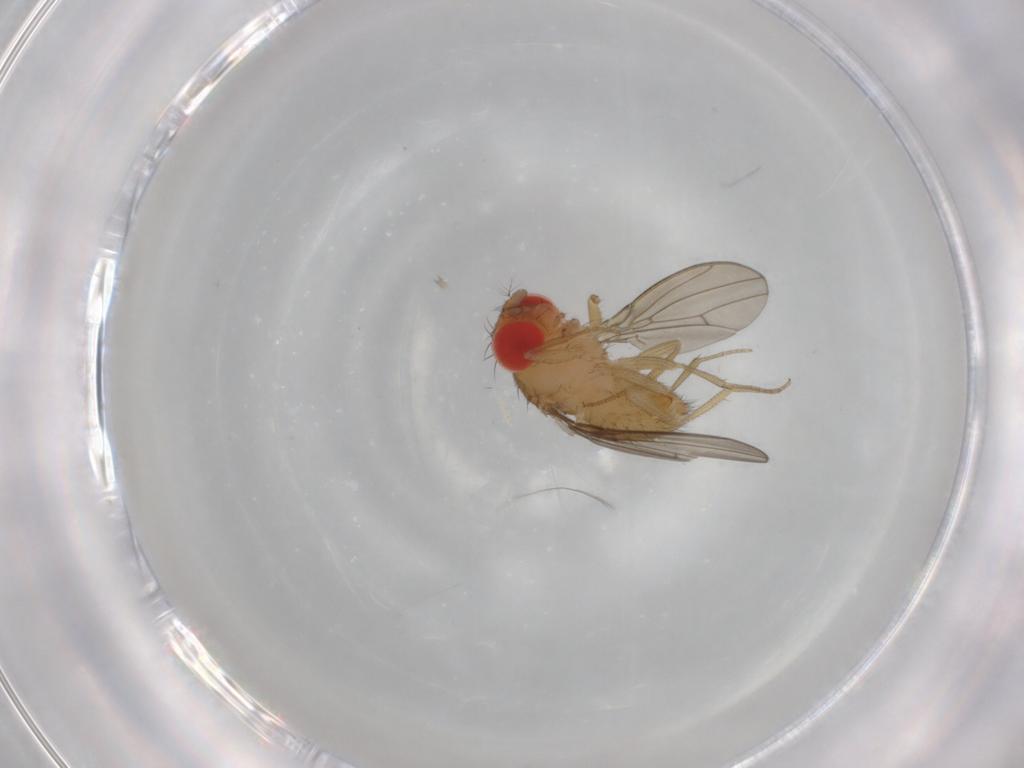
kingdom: Animalia
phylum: Arthropoda
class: Insecta
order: Diptera
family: Drosophilidae
